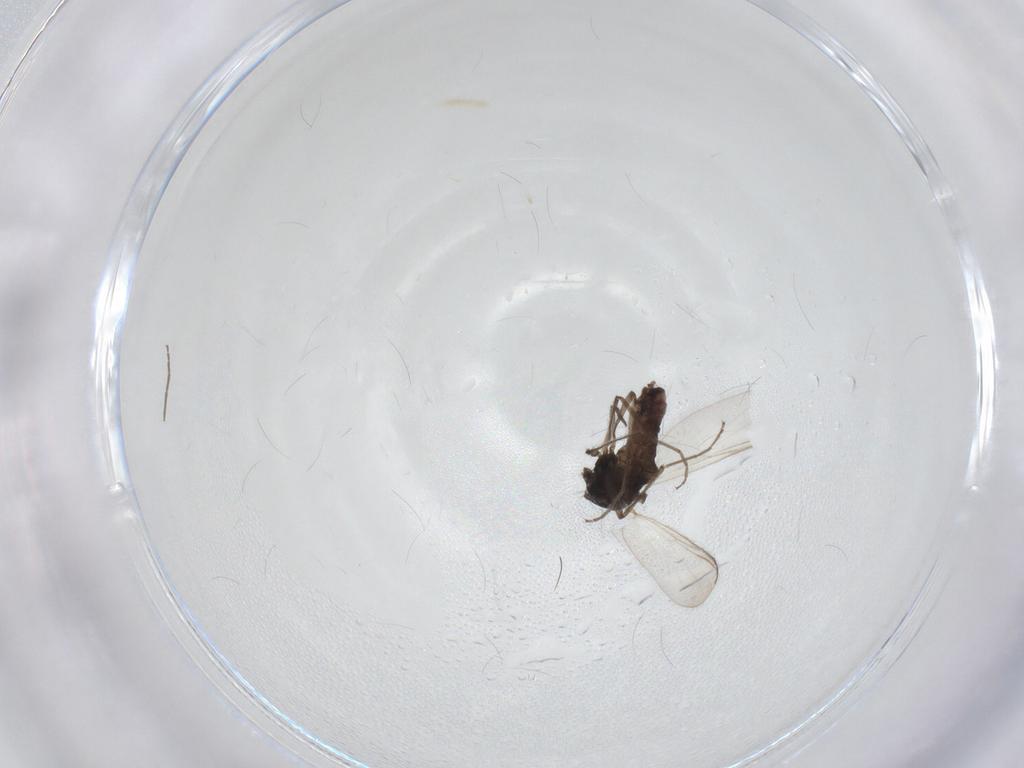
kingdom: Animalia
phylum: Arthropoda
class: Insecta
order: Diptera
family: Chironomidae
